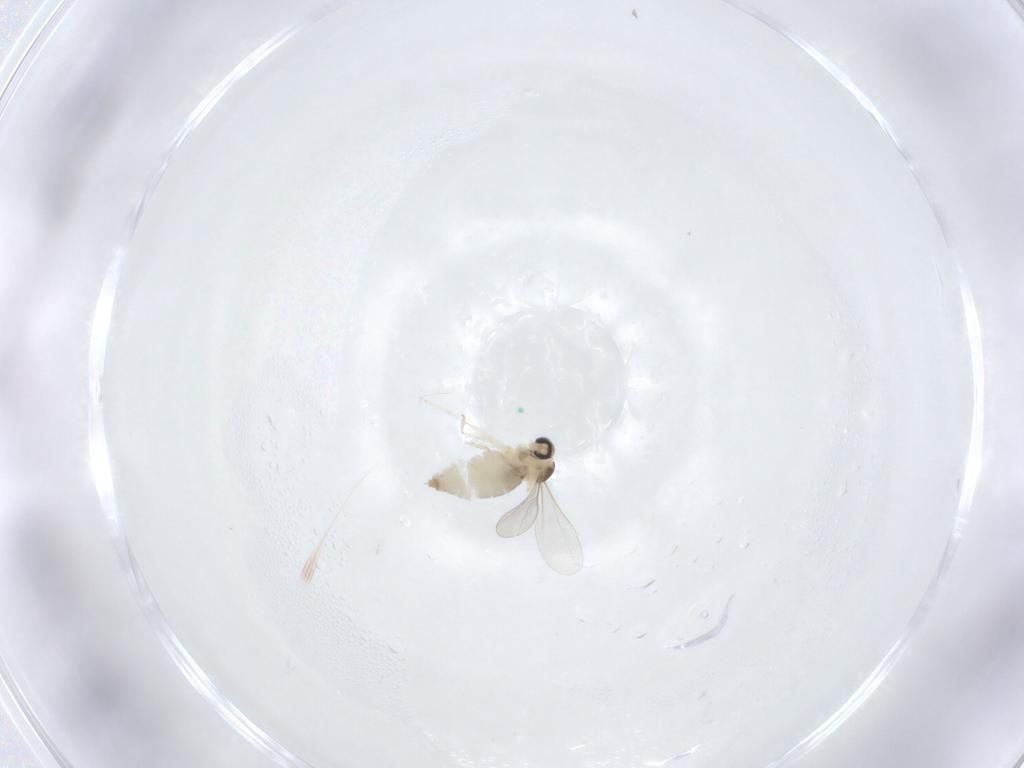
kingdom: Animalia
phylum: Arthropoda
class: Insecta
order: Diptera
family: Cecidomyiidae
